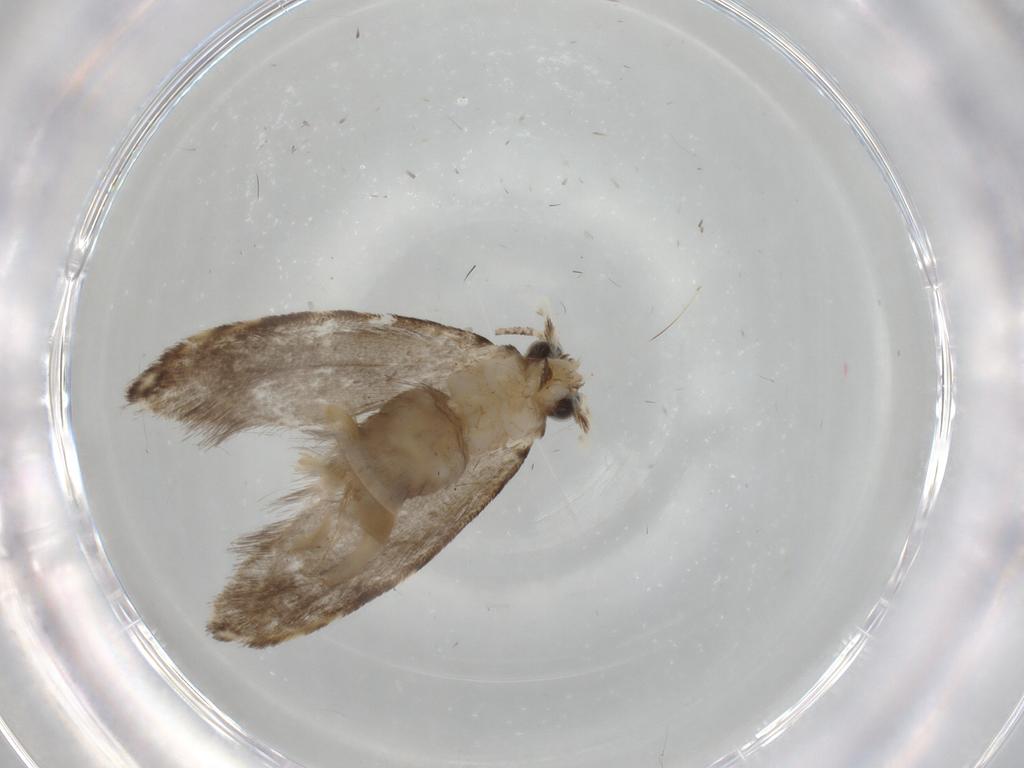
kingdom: Animalia
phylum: Arthropoda
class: Insecta
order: Lepidoptera
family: Tineidae
